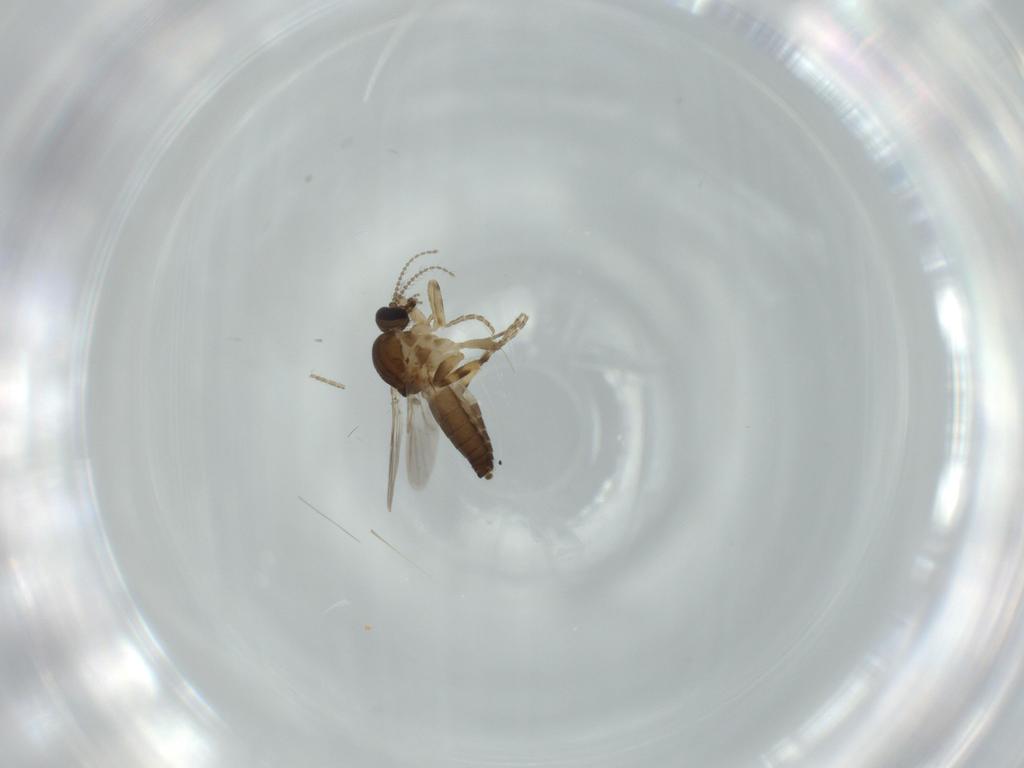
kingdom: Animalia
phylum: Arthropoda
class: Insecta
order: Diptera
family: Ceratopogonidae
